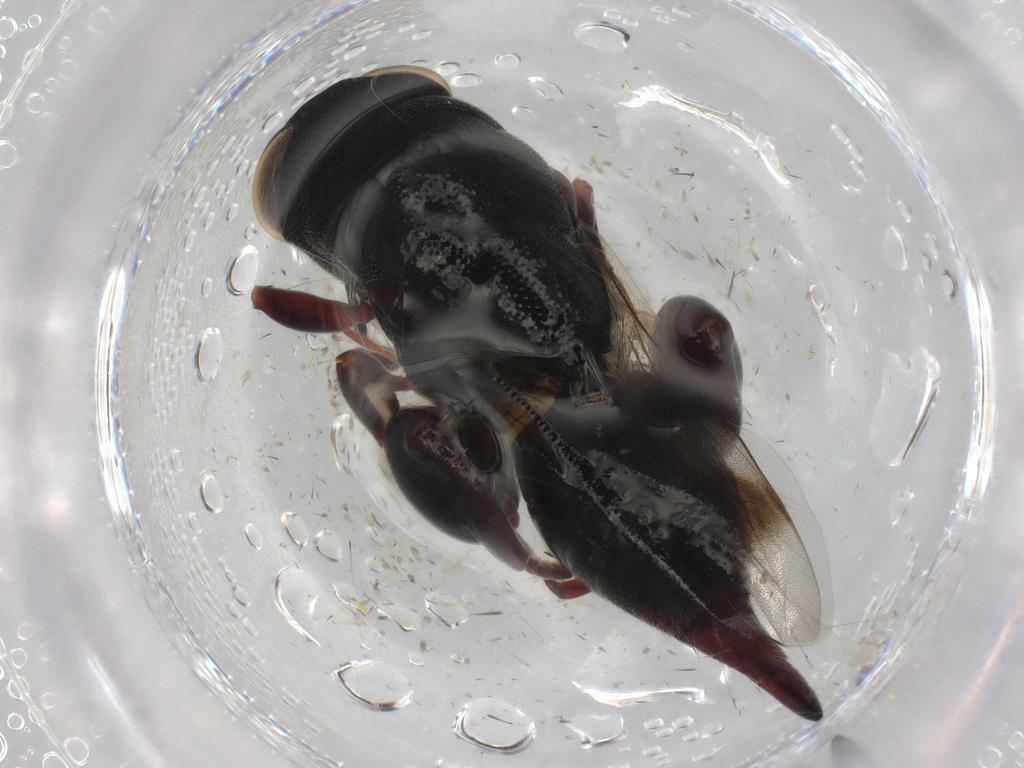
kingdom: Animalia
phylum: Arthropoda
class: Insecta
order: Hymenoptera
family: Scelionidae
